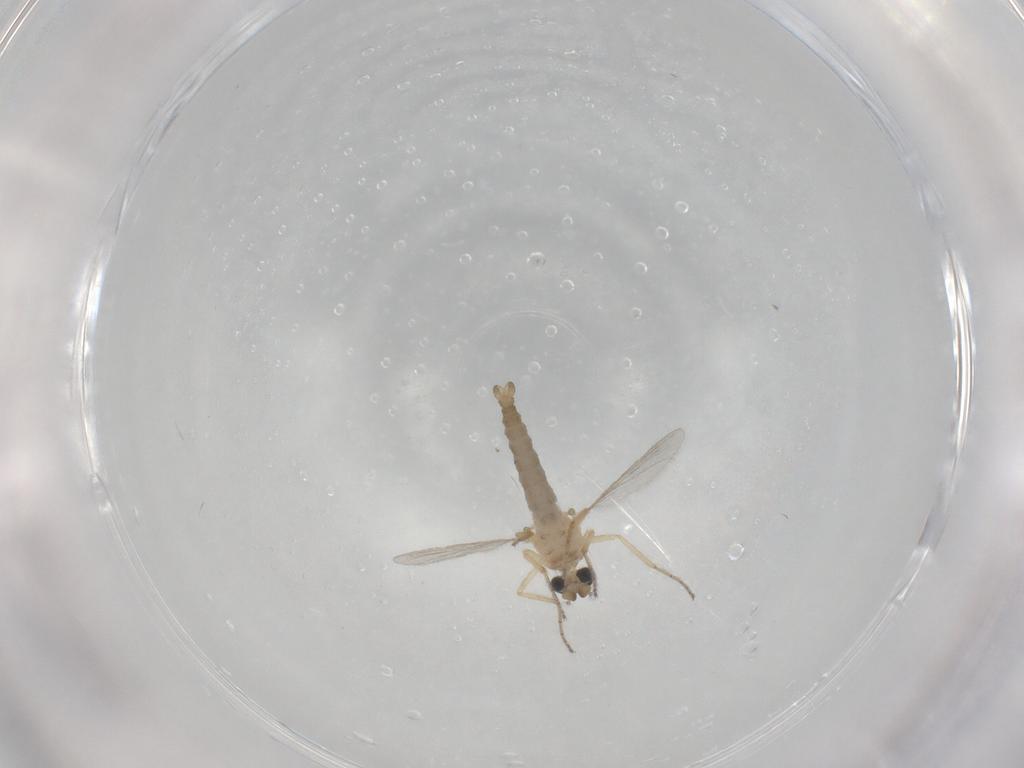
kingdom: Animalia
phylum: Arthropoda
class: Insecta
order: Diptera
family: Ceratopogonidae
